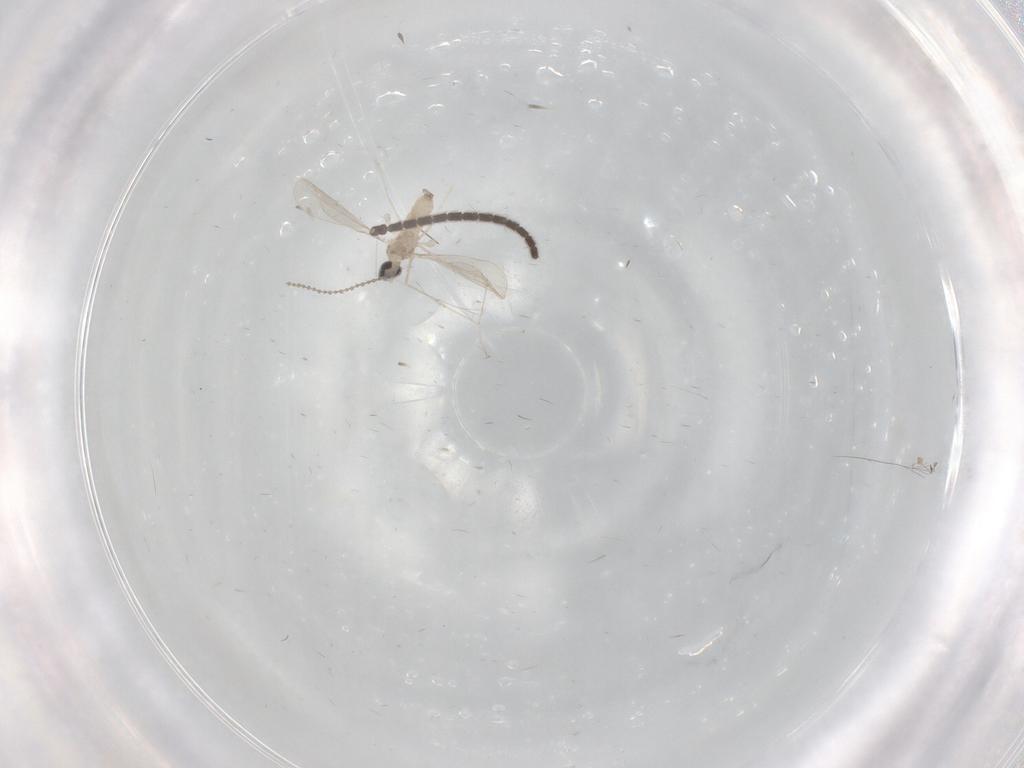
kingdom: Animalia
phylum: Arthropoda
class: Insecta
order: Diptera
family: Sciaridae
